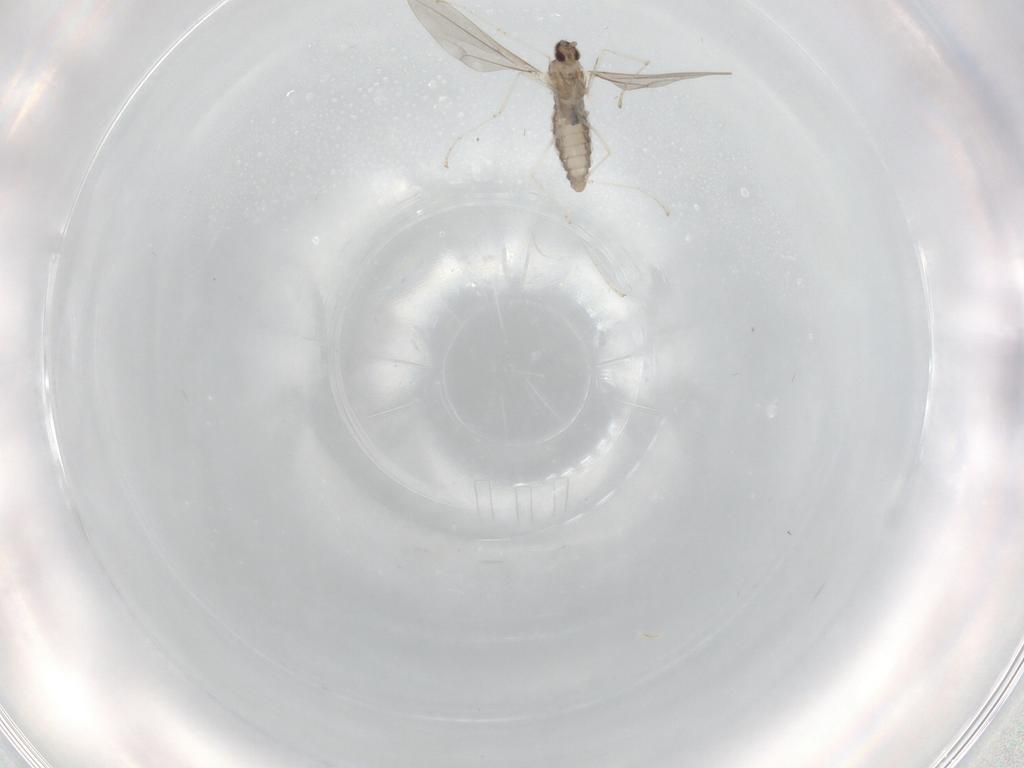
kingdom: Animalia
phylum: Arthropoda
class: Insecta
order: Diptera
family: Cecidomyiidae
